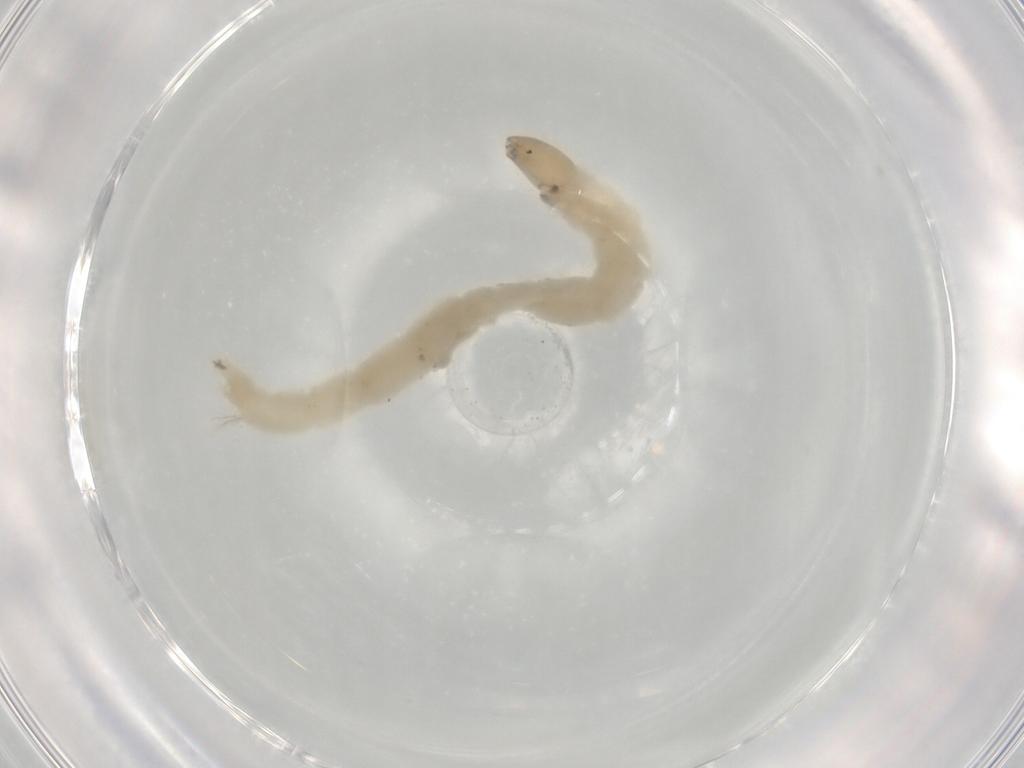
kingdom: Animalia
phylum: Arthropoda
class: Insecta
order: Diptera
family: Chironomidae
